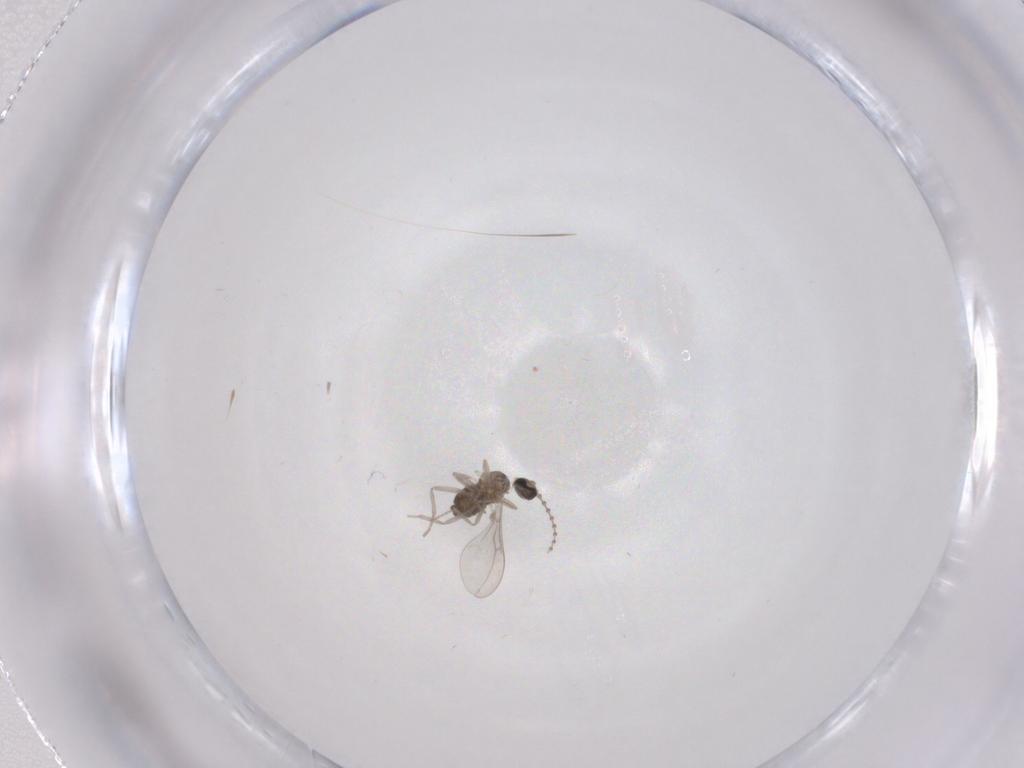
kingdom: Animalia
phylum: Arthropoda
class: Insecta
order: Diptera
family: Cecidomyiidae
